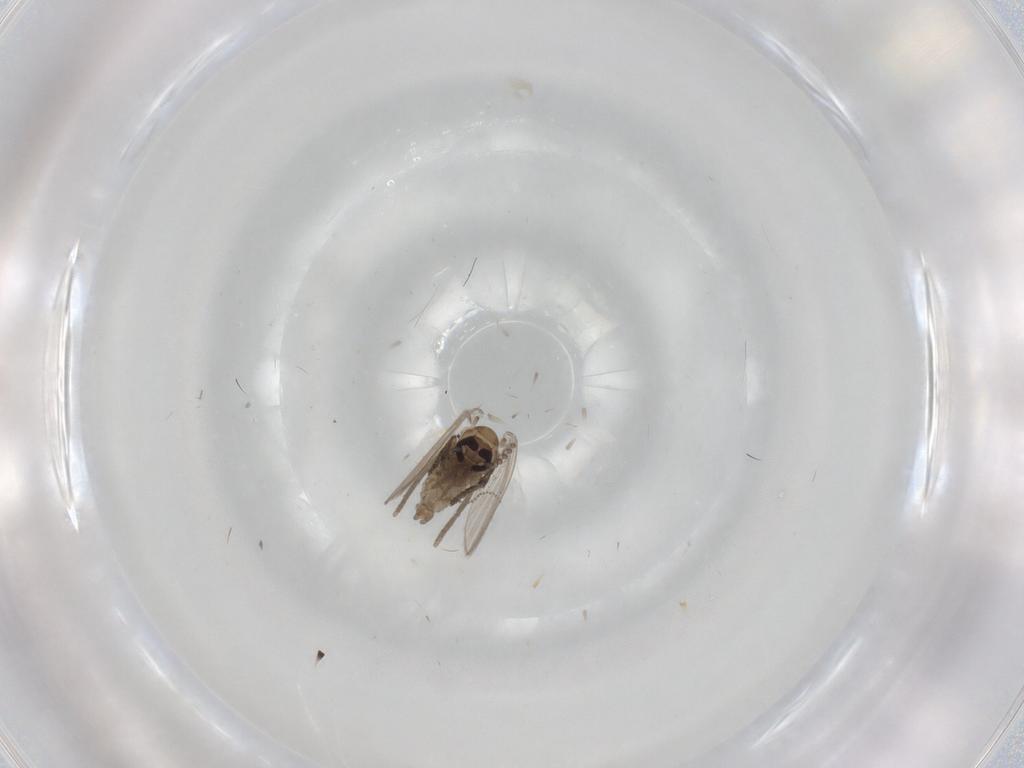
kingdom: Animalia
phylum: Arthropoda
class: Insecta
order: Diptera
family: Psychodidae
